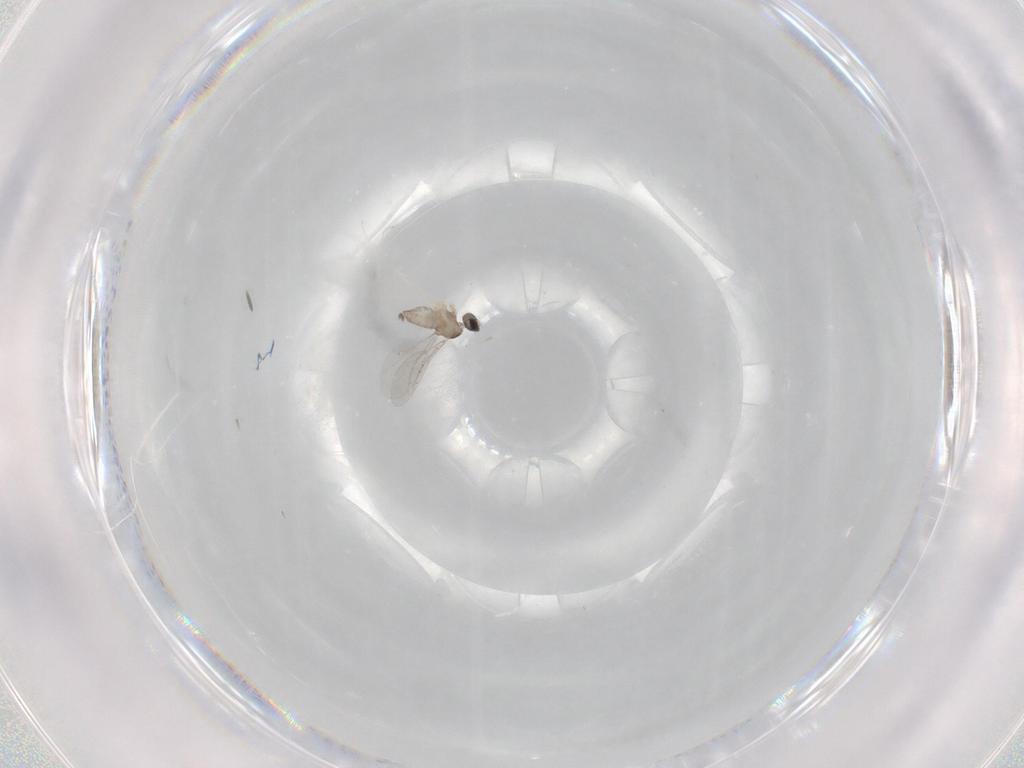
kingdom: Animalia
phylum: Arthropoda
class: Insecta
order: Diptera
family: Cecidomyiidae
